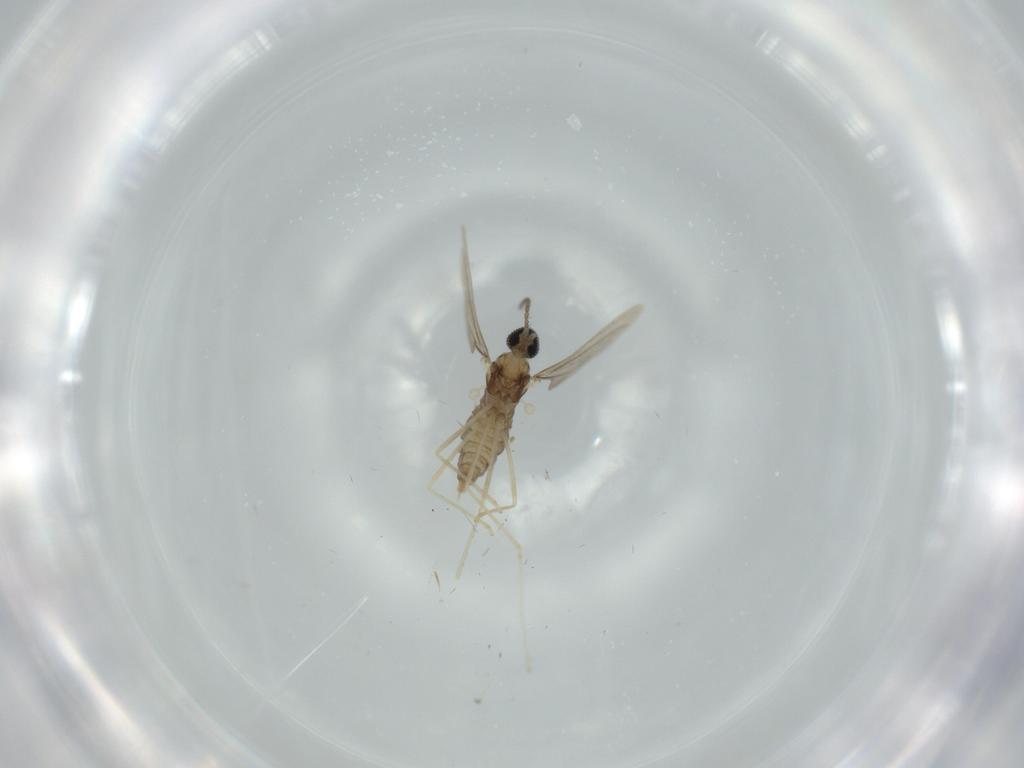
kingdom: Animalia
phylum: Arthropoda
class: Insecta
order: Diptera
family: Cecidomyiidae
